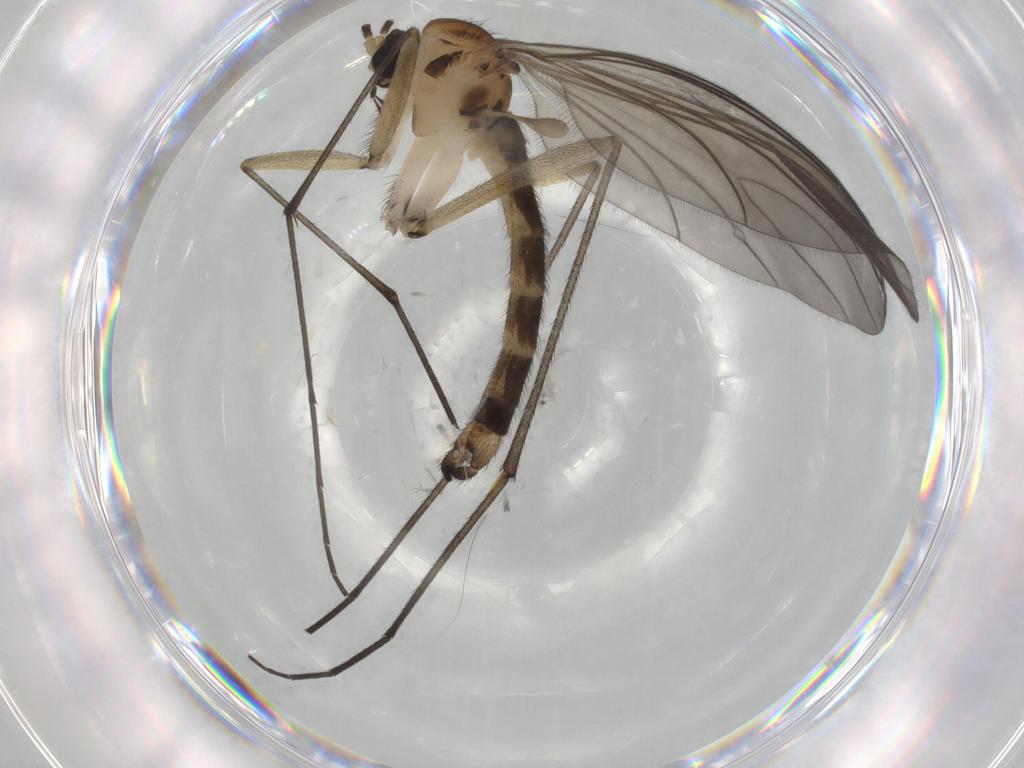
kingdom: Animalia
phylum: Arthropoda
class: Insecta
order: Diptera
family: Sciaridae
